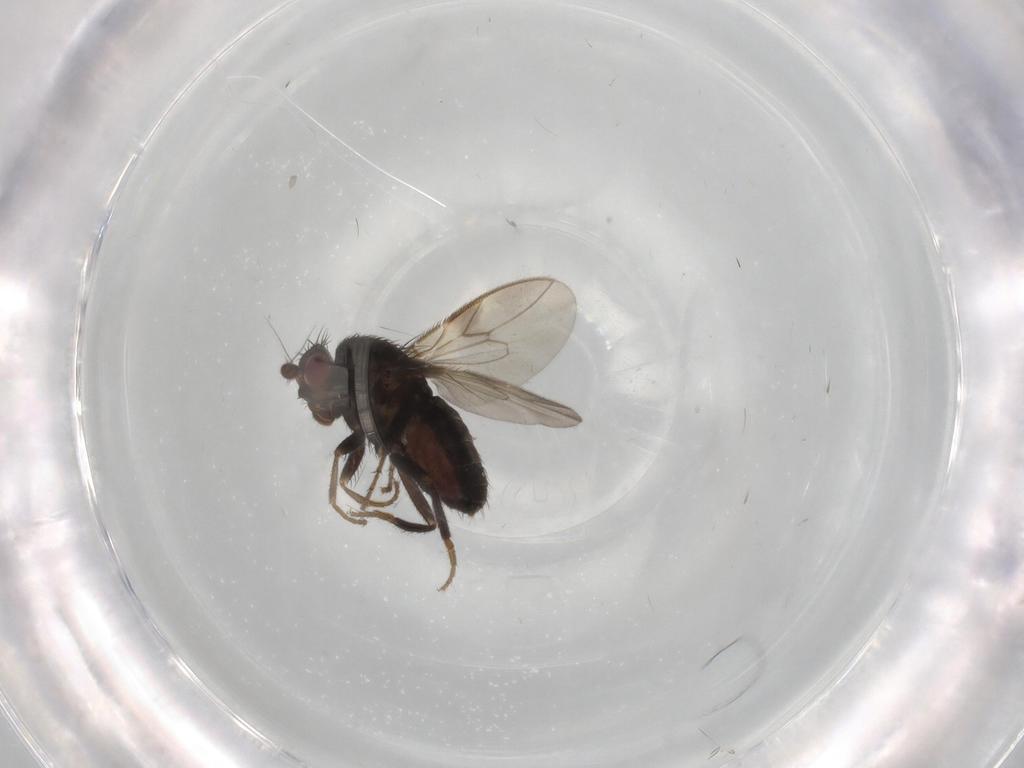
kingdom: Animalia
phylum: Arthropoda
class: Insecta
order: Diptera
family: Sphaeroceridae
